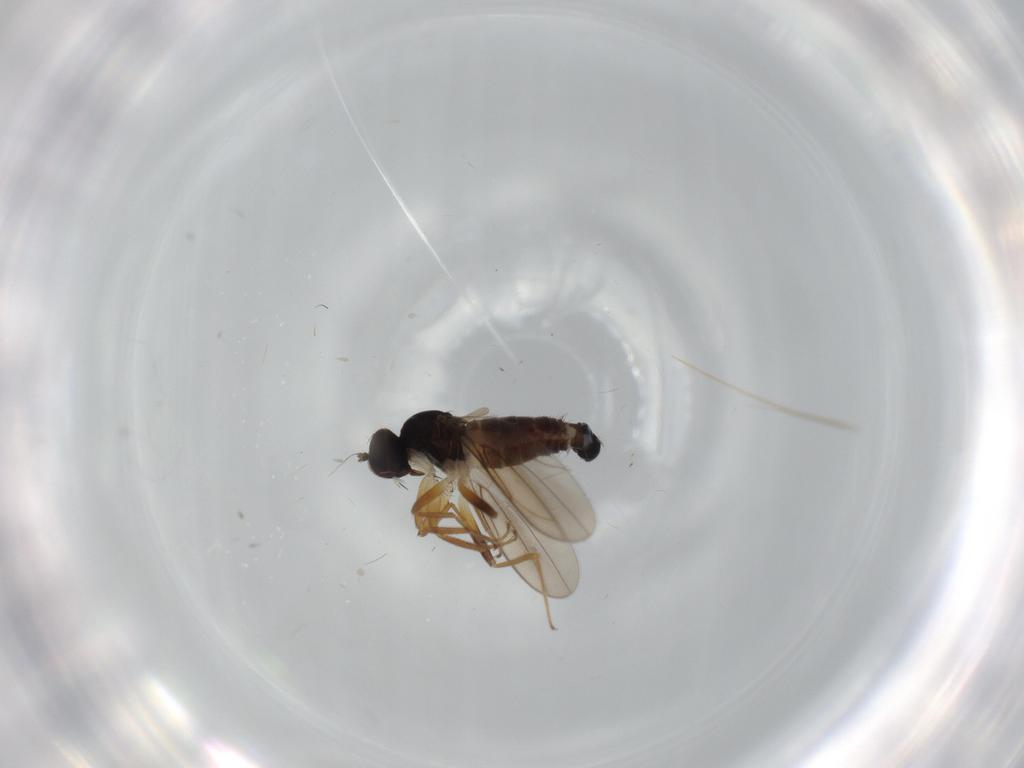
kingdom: Animalia
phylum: Arthropoda
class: Insecta
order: Diptera
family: Hybotidae
